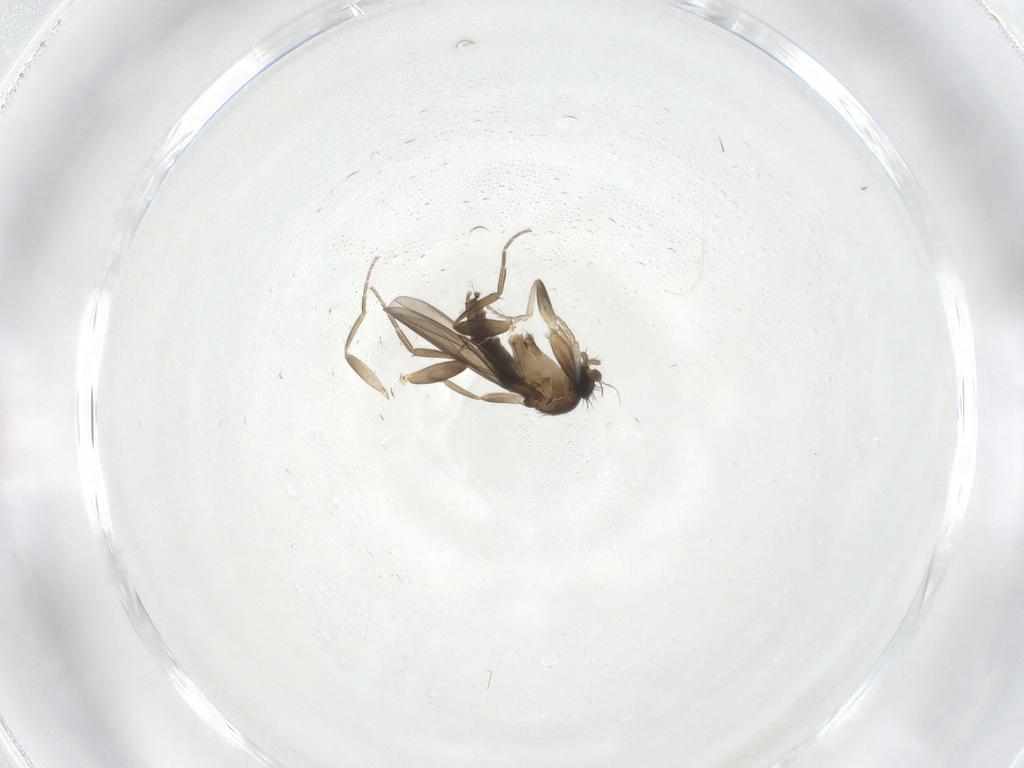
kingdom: Animalia
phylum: Arthropoda
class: Insecta
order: Diptera
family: Cecidomyiidae
